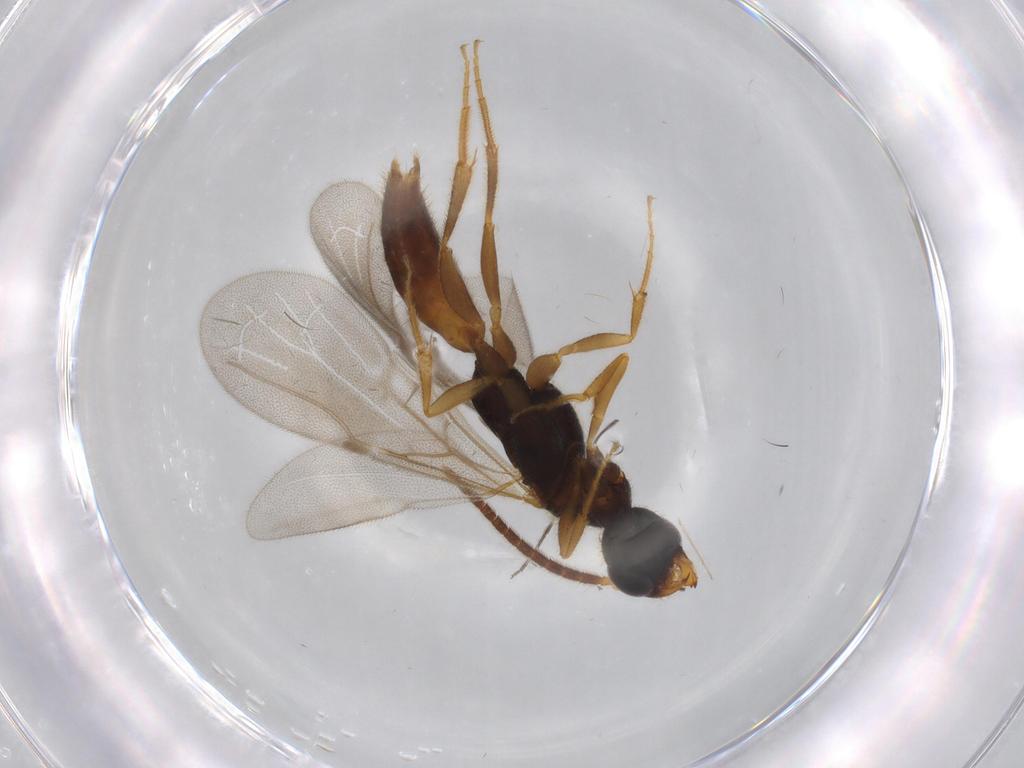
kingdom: Animalia
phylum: Arthropoda
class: Insecta
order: Hymenoptera
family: Bethylidae
